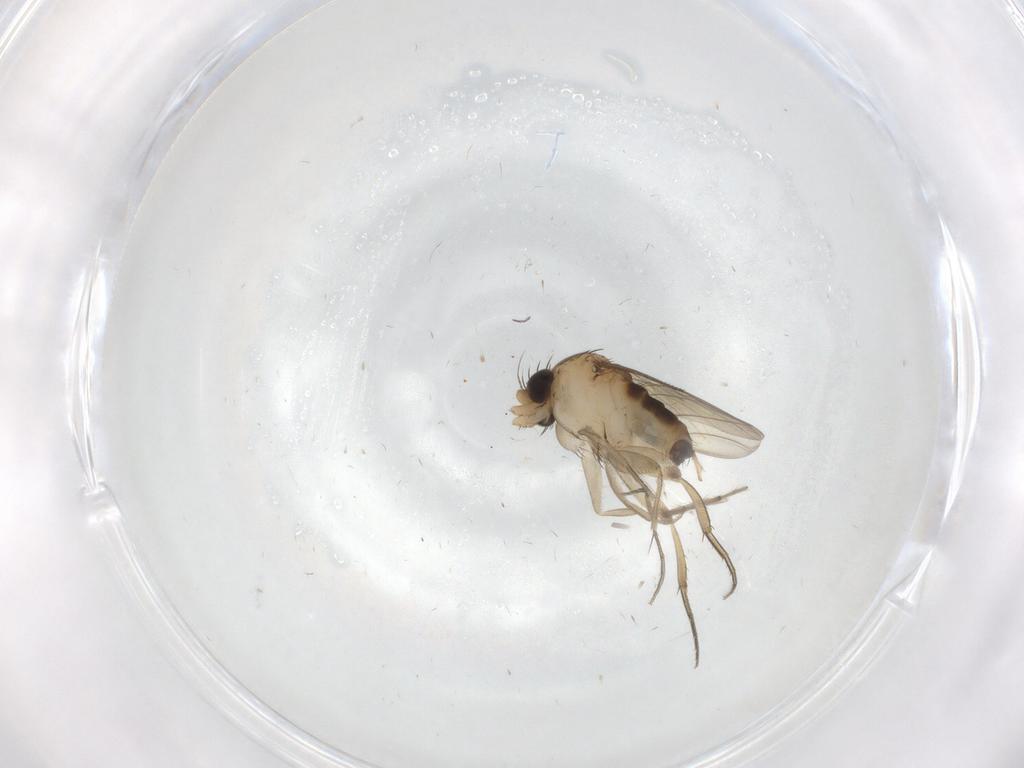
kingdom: Animalia
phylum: Arthropoda
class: Insecta
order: Diptera
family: Phoridae
